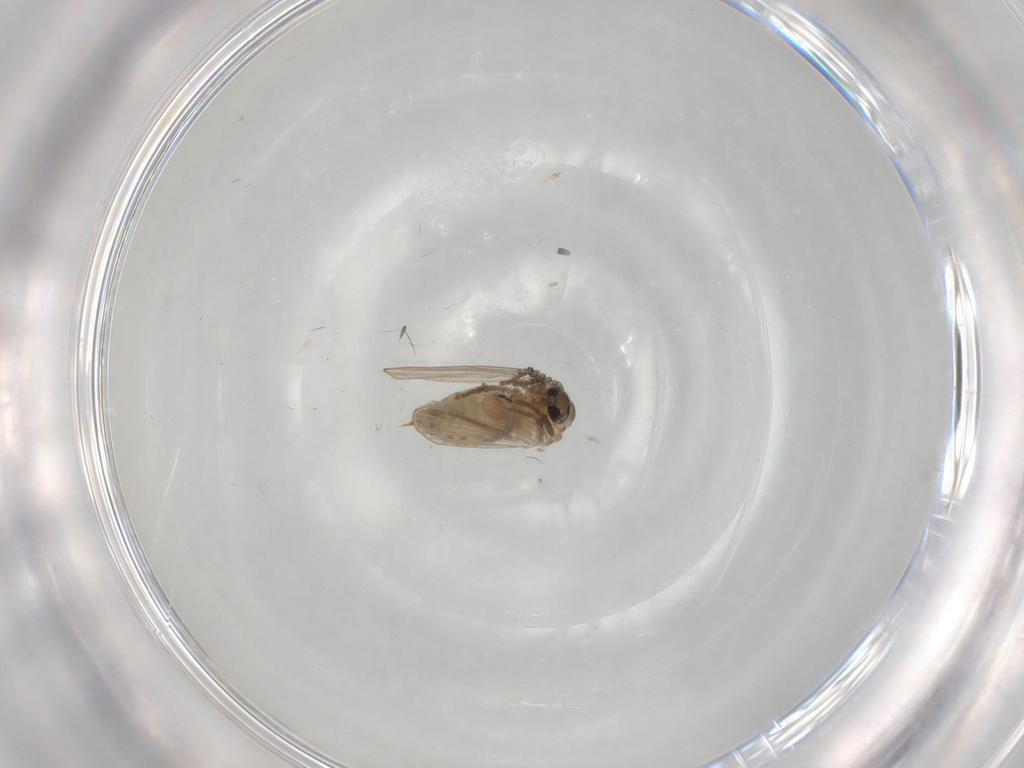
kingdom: Animalia
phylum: Arthropoda
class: Insecta
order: Diptera
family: Psychodidae
